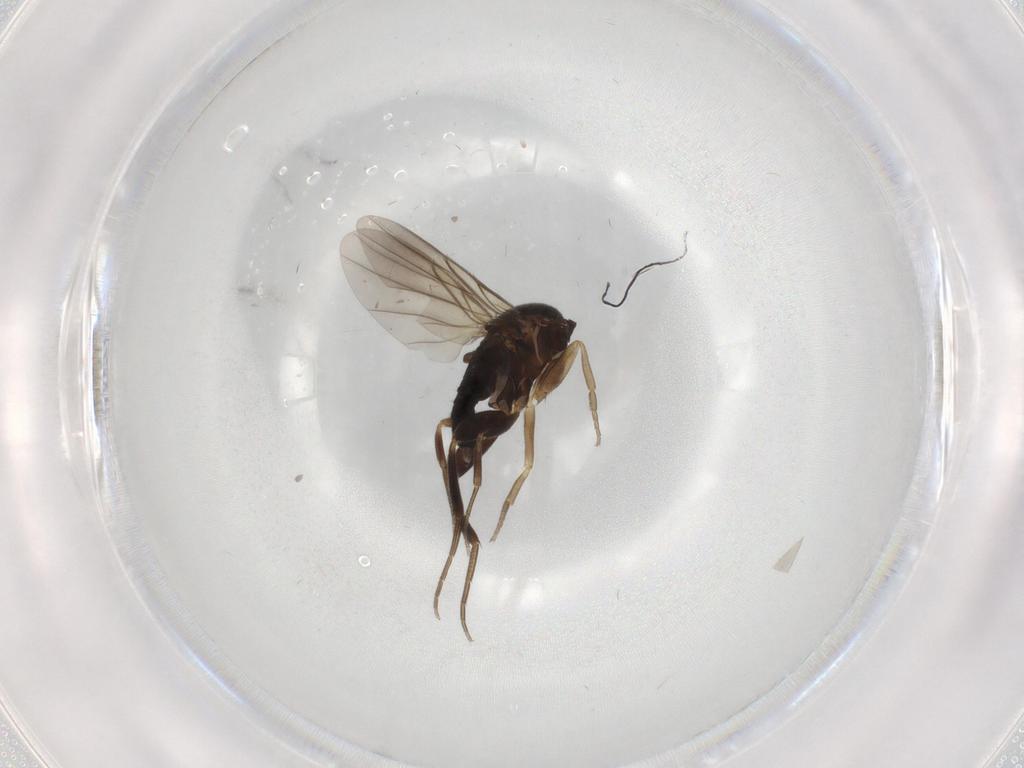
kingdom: Animalia
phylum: Arthropoda
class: Insecta
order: Diptera
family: Phoridae
